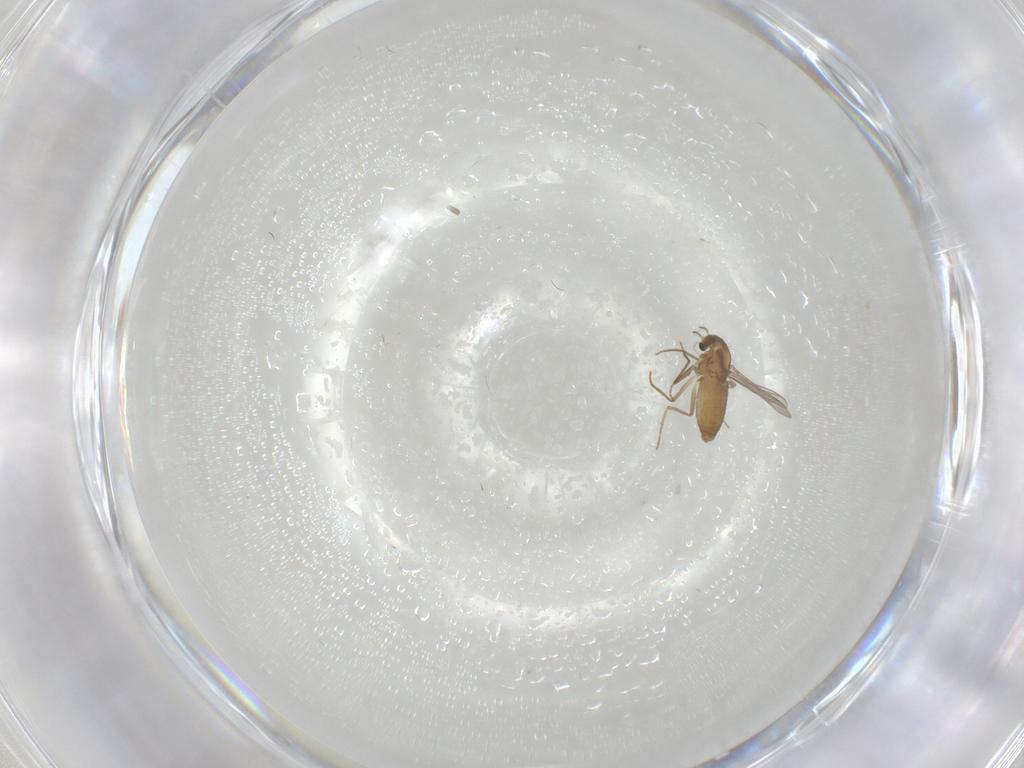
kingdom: Animalia
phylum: Arthropoda
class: Insecta
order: Diptera
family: Chironomidae
